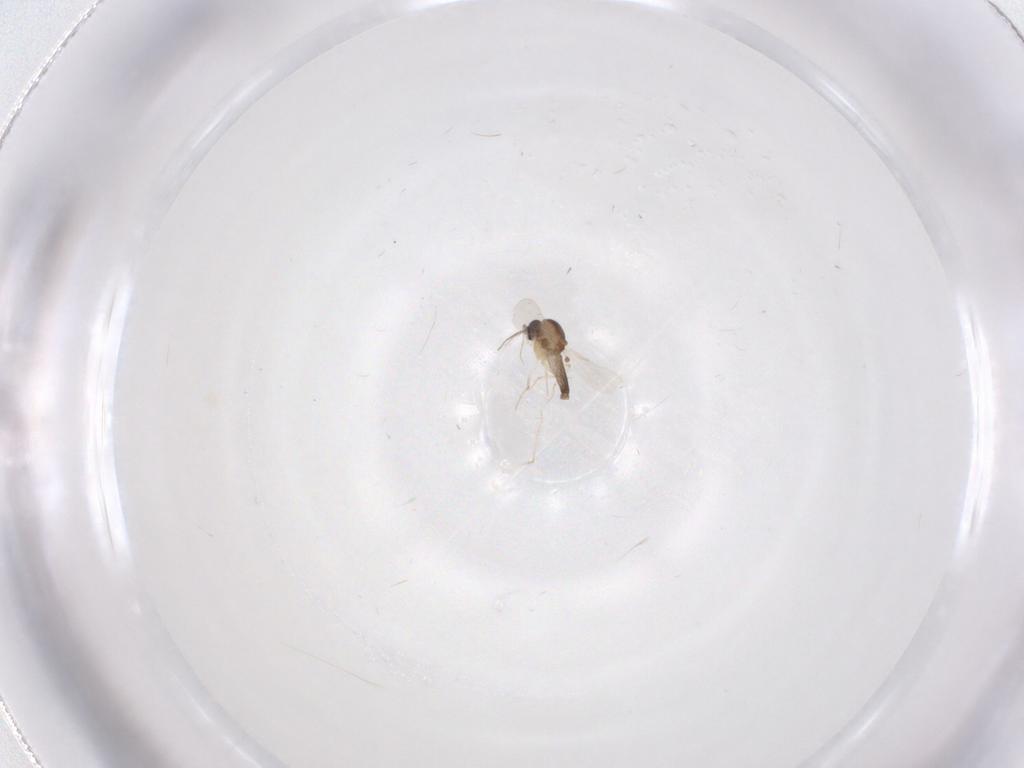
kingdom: Animalia
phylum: Arthropoda
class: Insecta
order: Diptera
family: Ceratopogonidae
